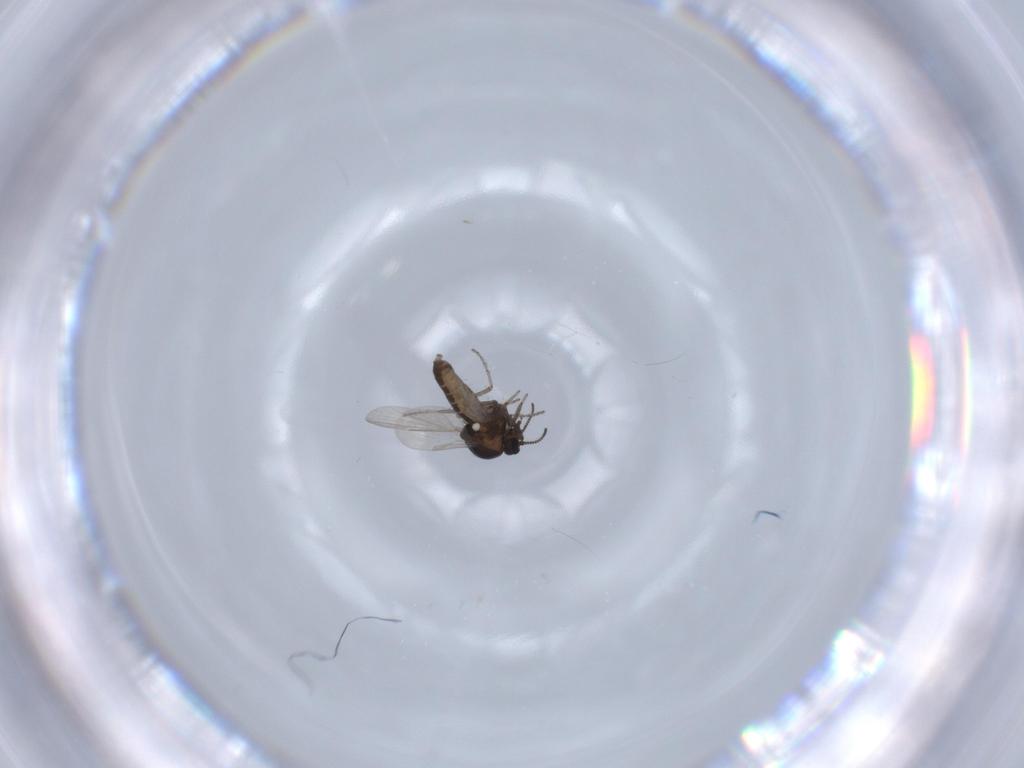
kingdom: Animalia
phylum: Arthropoda
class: Insecta
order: Diptera
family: Ceratopogonidae
